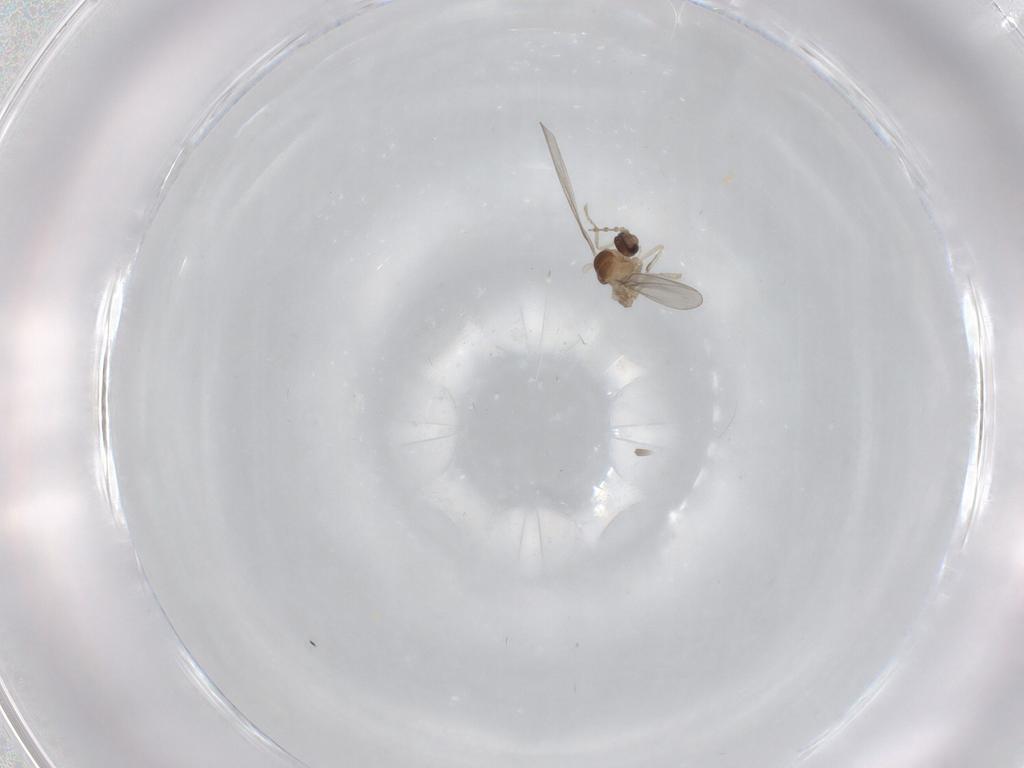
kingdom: Animalia
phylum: Arthropoda
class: Insecta
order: Diptera
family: Cecidomyiidae
